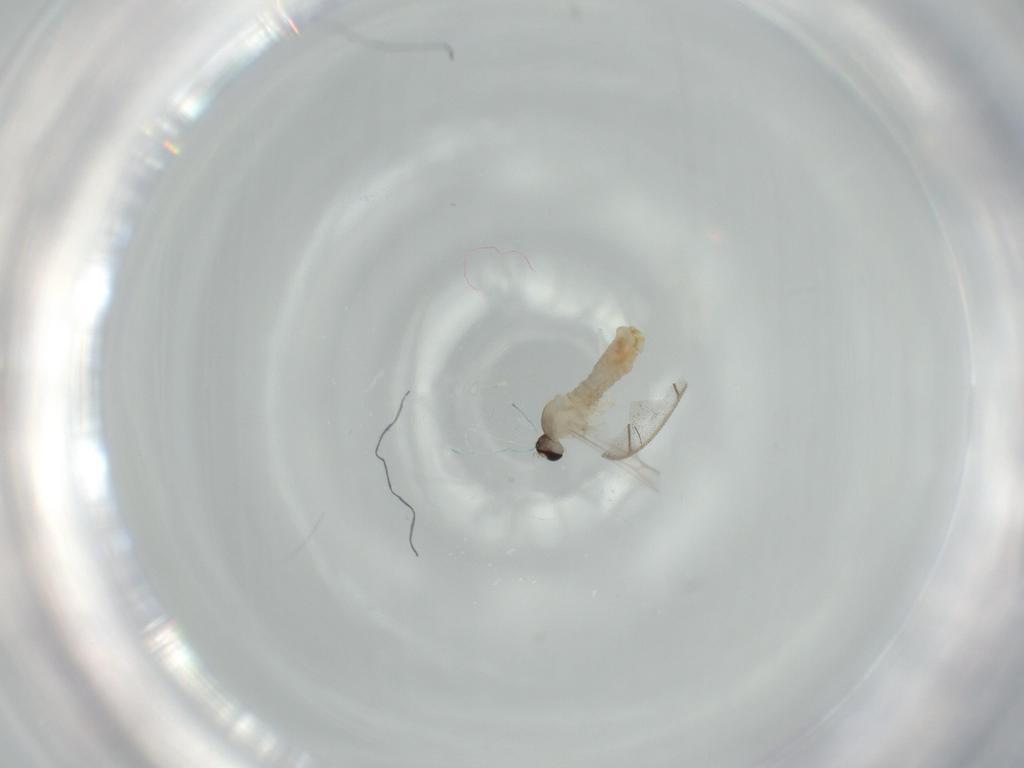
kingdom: Animalia
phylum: Arthropoda
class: Insecta
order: Diptera
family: Cecidomyiidae
